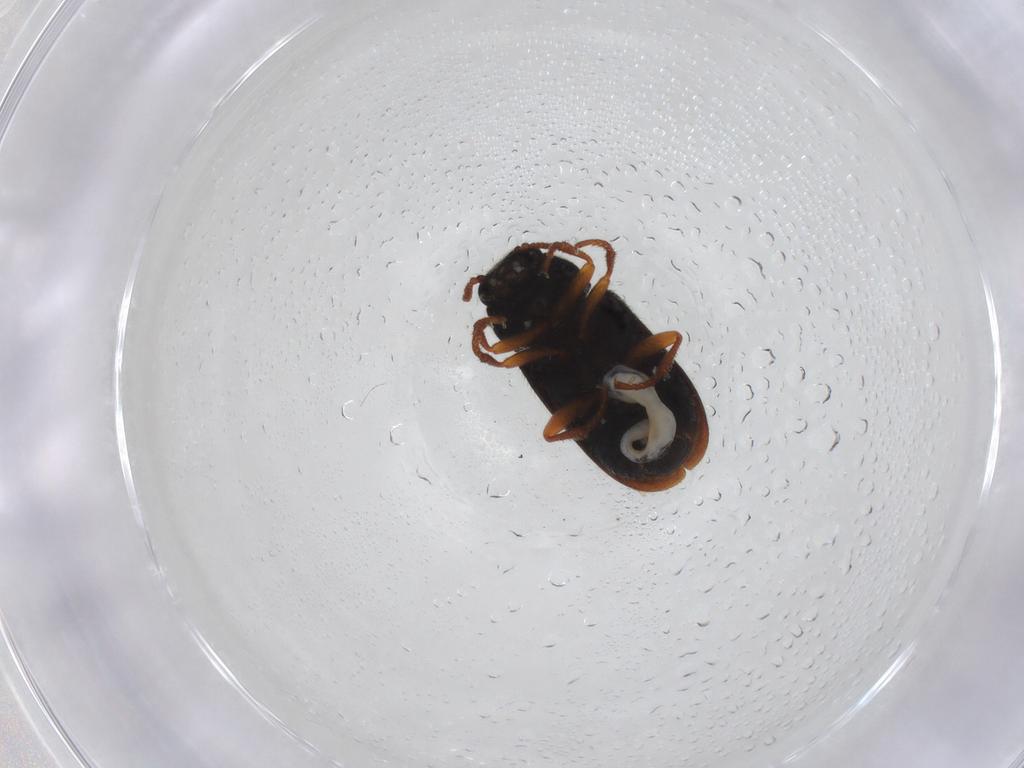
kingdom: Animalia
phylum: Arthropoda
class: Insecta
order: Coleoptera
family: Melyridae
